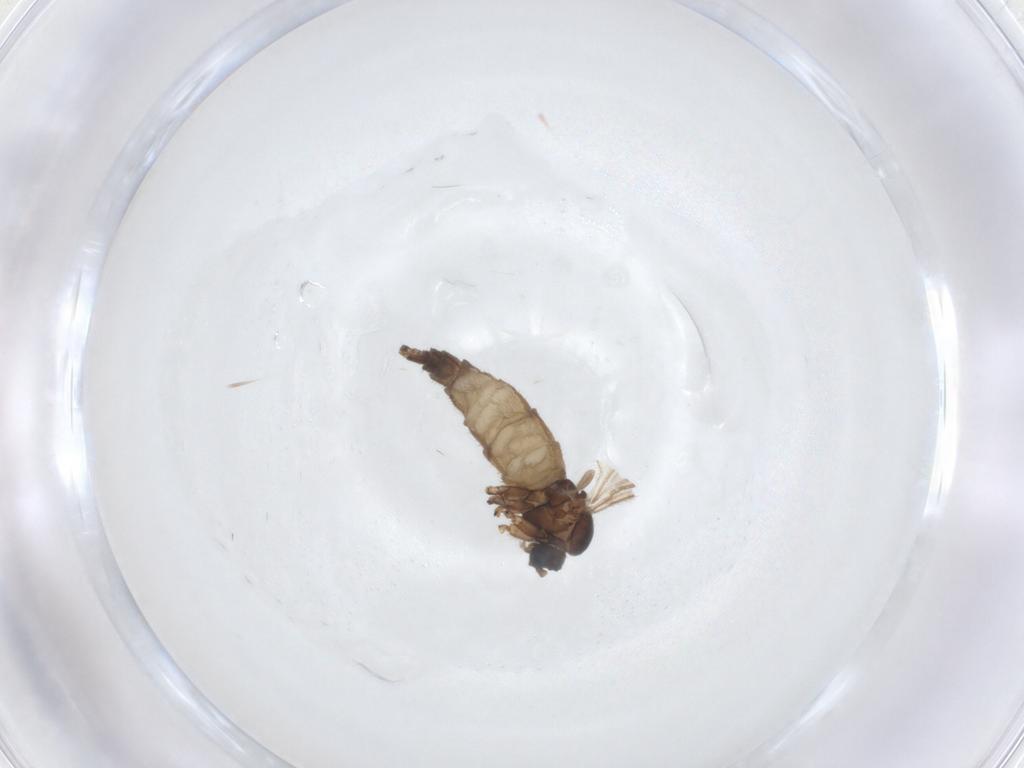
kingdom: Animalia
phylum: Arthropoda
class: Insecta
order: Diptera
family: Sciaridae
